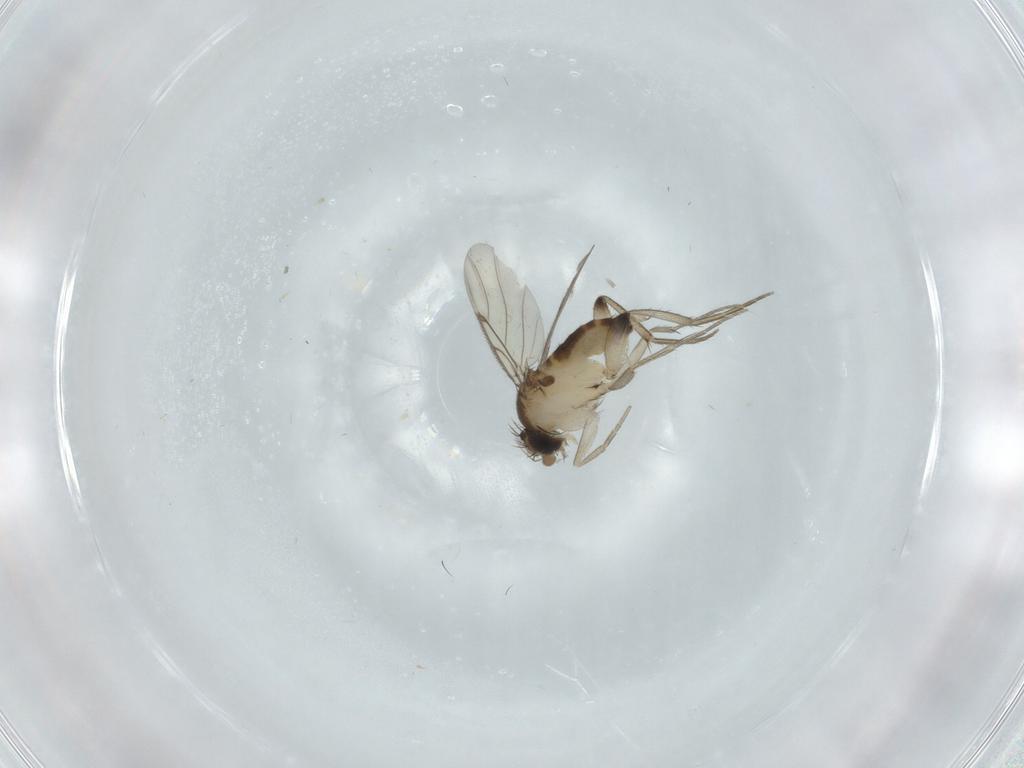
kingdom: Animalia
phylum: Arthropoda
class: Insecta
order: Diptera
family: Phoridae
